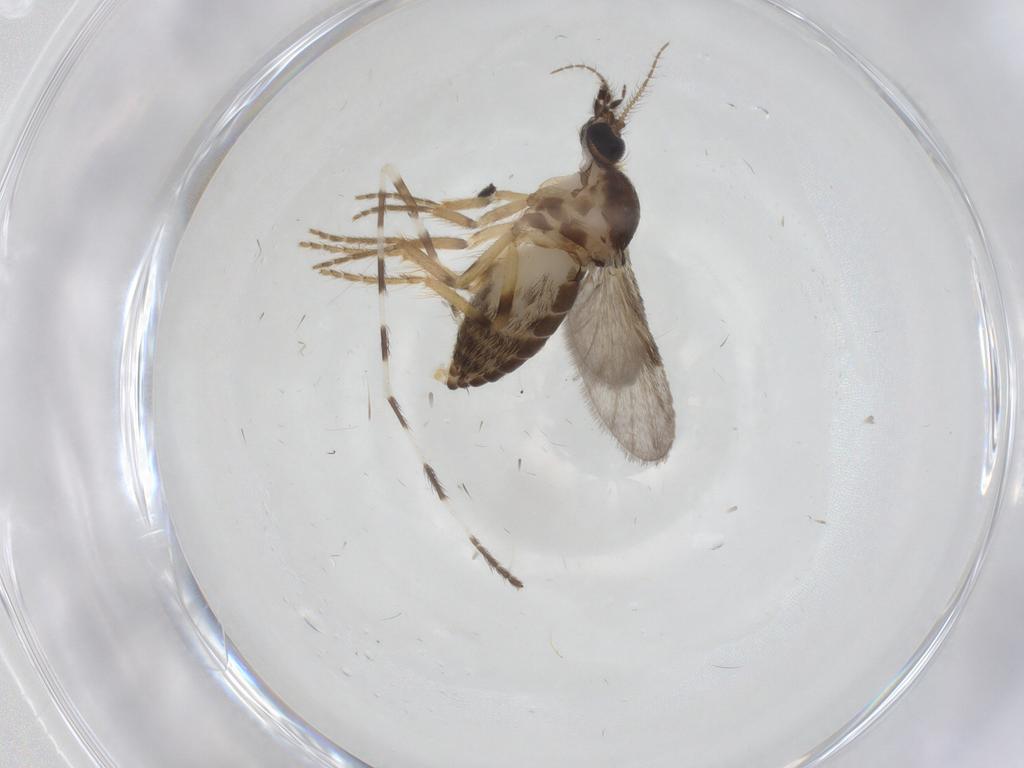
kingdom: Animalia
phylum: Arthropoda
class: Insecta
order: Diptera
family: Ceratopogonidae
